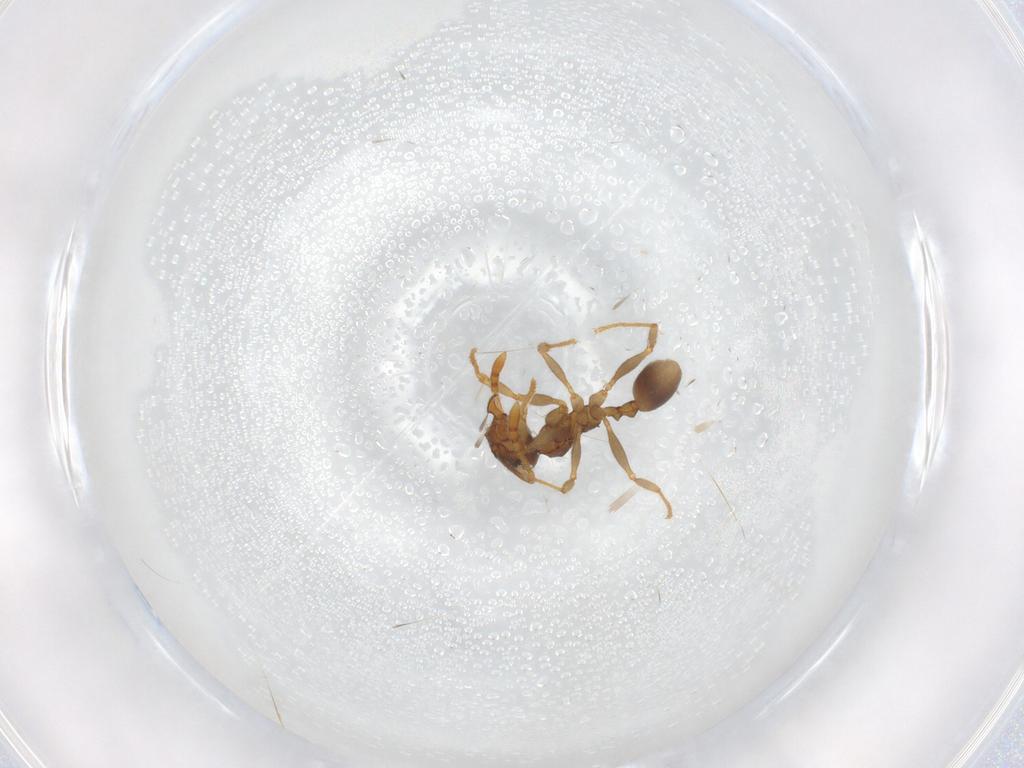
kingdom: Animalia
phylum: Arthropoda
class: Insecta
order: Hymenoptera
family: Formicidae
